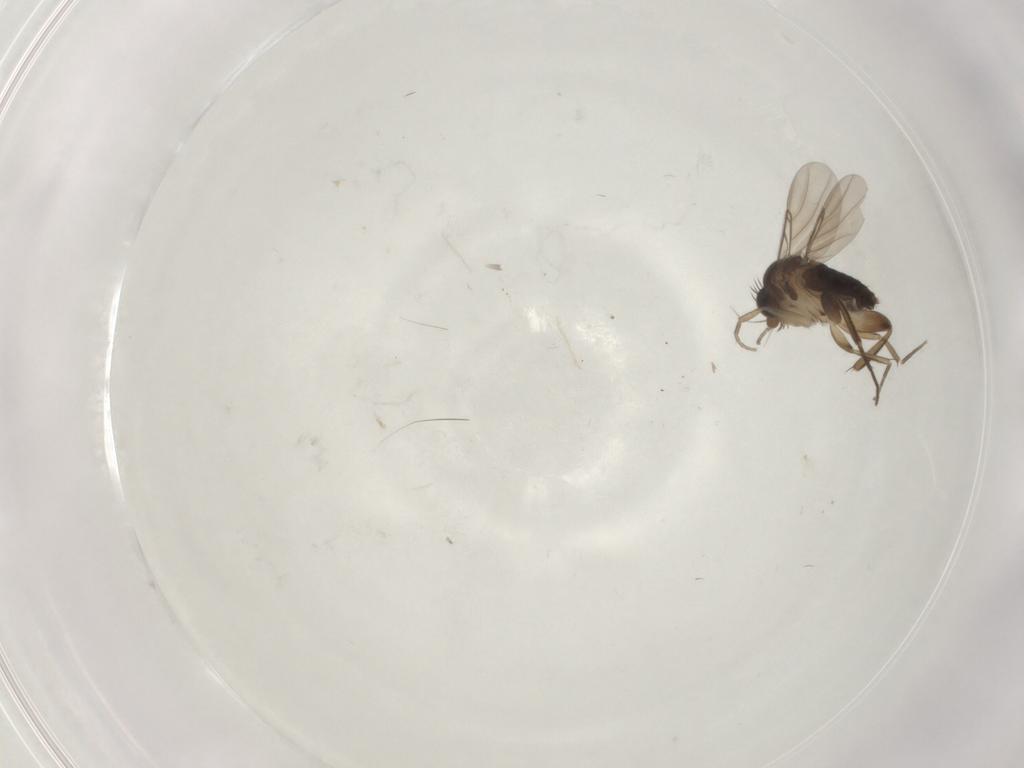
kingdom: Animalia
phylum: Arthropoda
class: Insecta
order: Diptera
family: Phoridae
